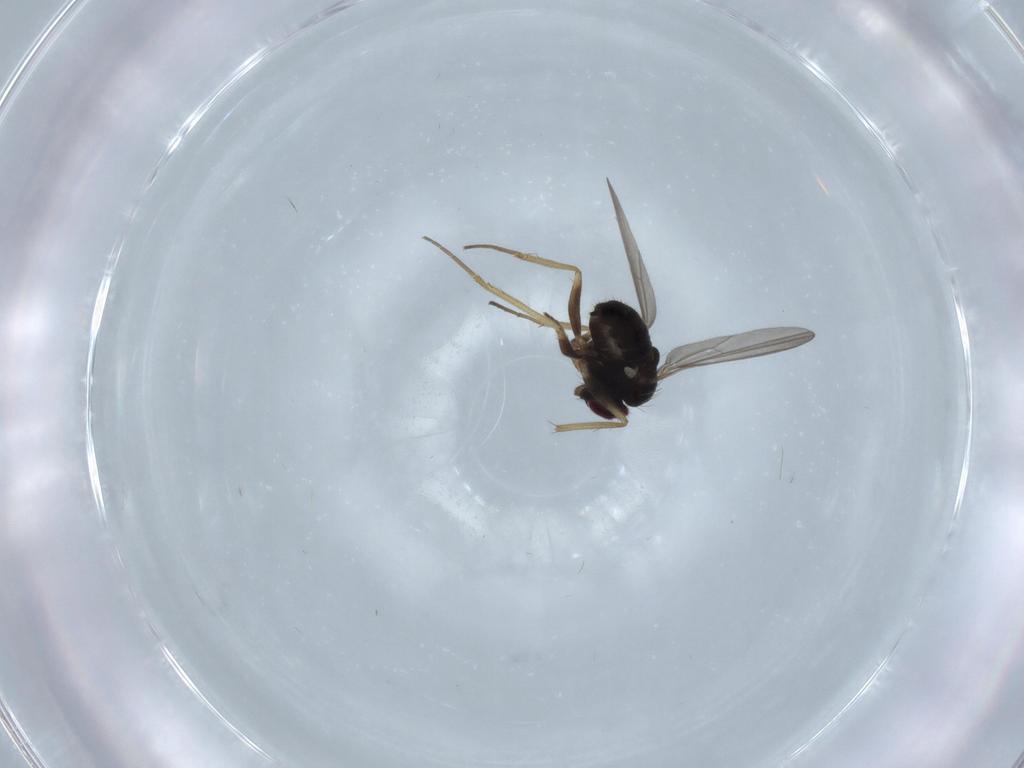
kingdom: Animalia
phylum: Arthropoda
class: Insecta
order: Diptera
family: Dolichopodidae
